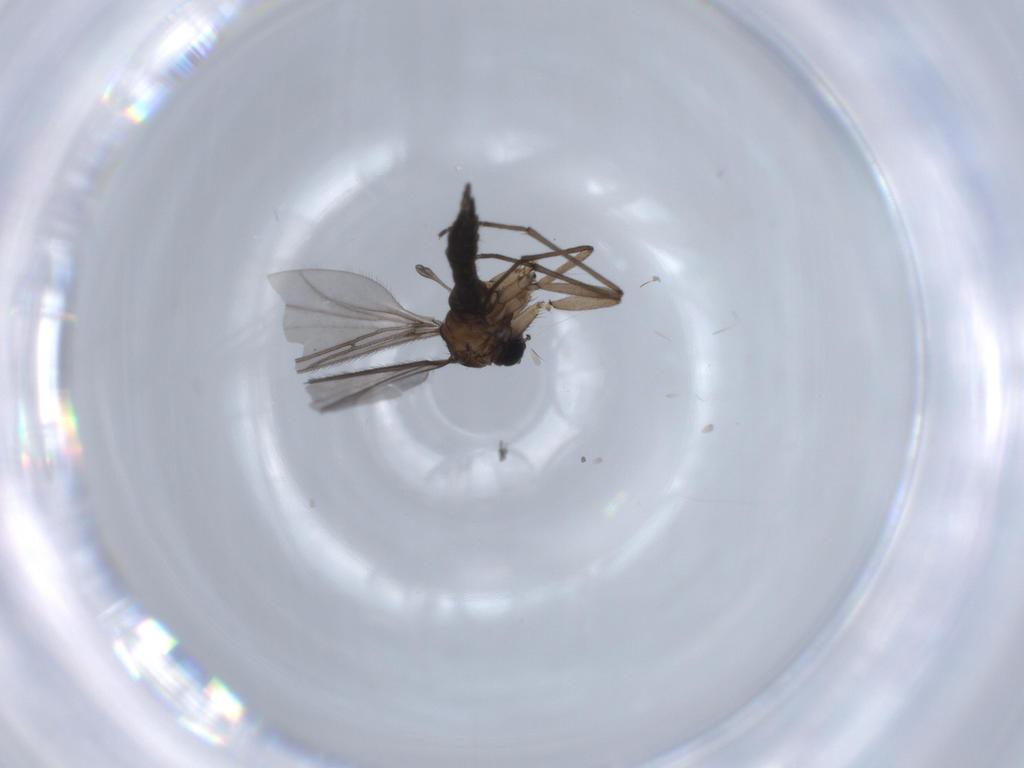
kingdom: Animalia
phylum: Arthropoda
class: Insecta
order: Diptera
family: Sciaridae
